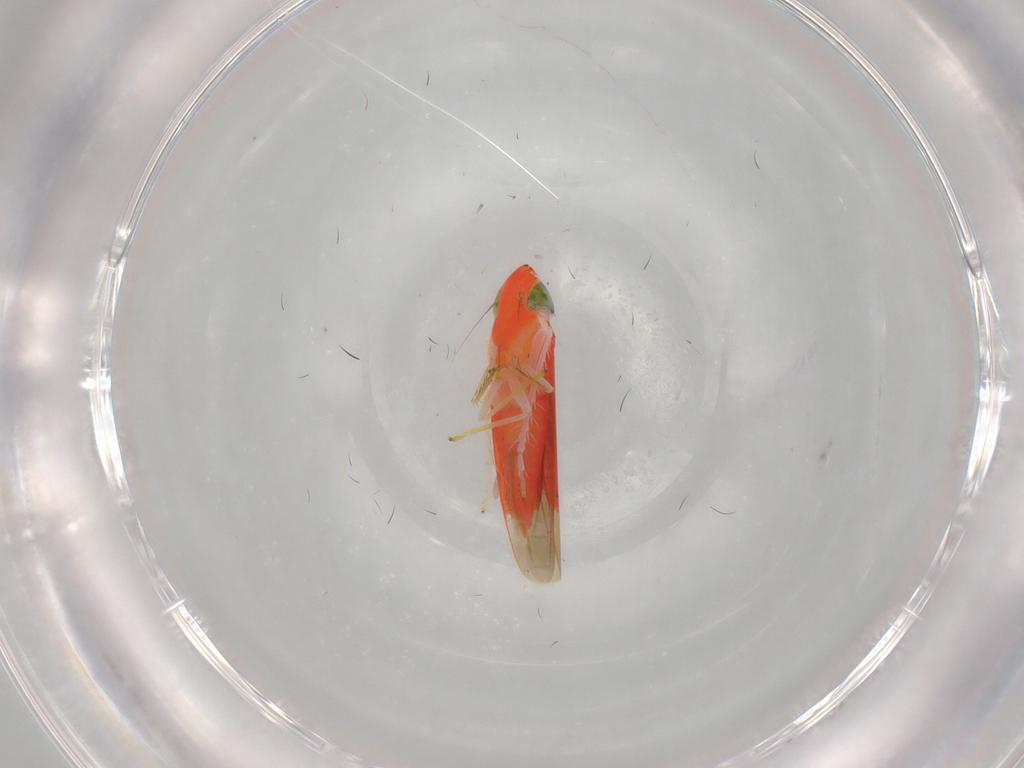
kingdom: Animalia
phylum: Arthropoda
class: Insecta
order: Hemiptera
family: Cicadellidae
